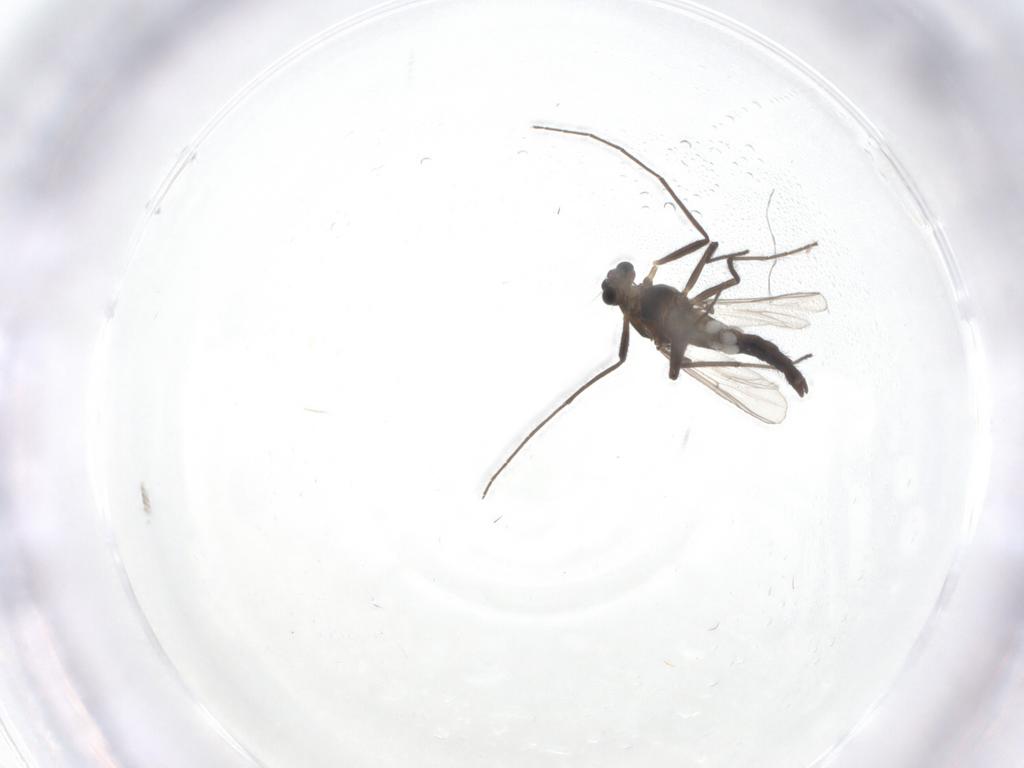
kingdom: Animalia
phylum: Arthropoda
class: Insecta
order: Diptera
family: Chironomidae
